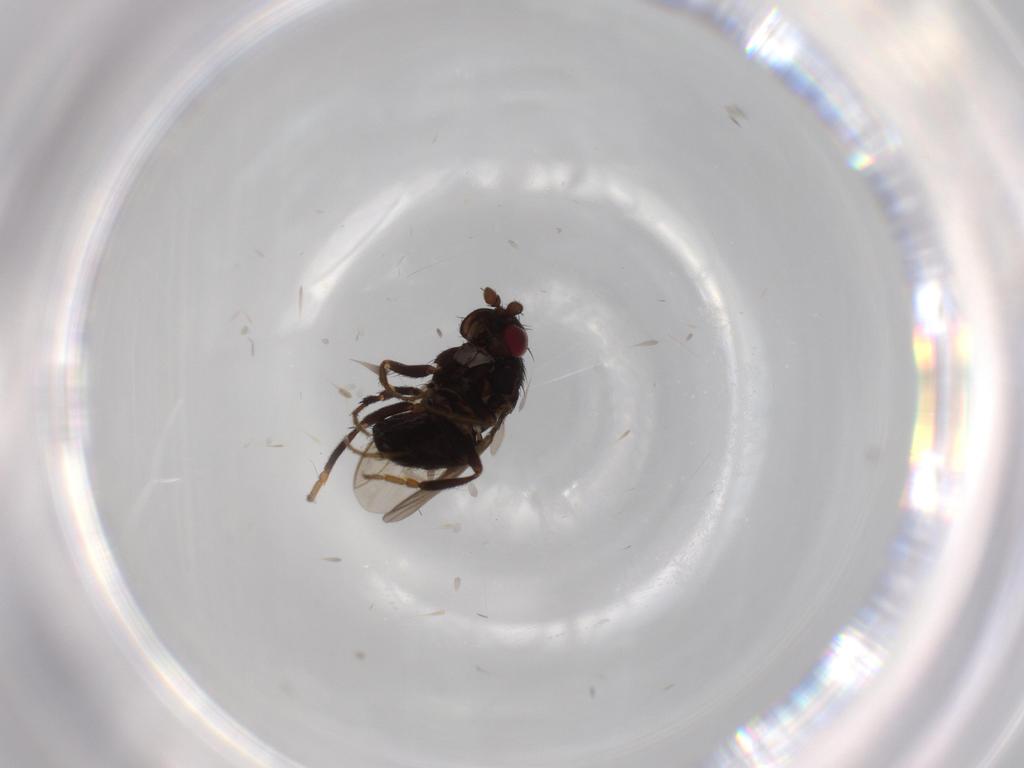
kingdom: Animalia
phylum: Arthropoda
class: Insecta
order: Diptera
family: Sphaeroceridae
